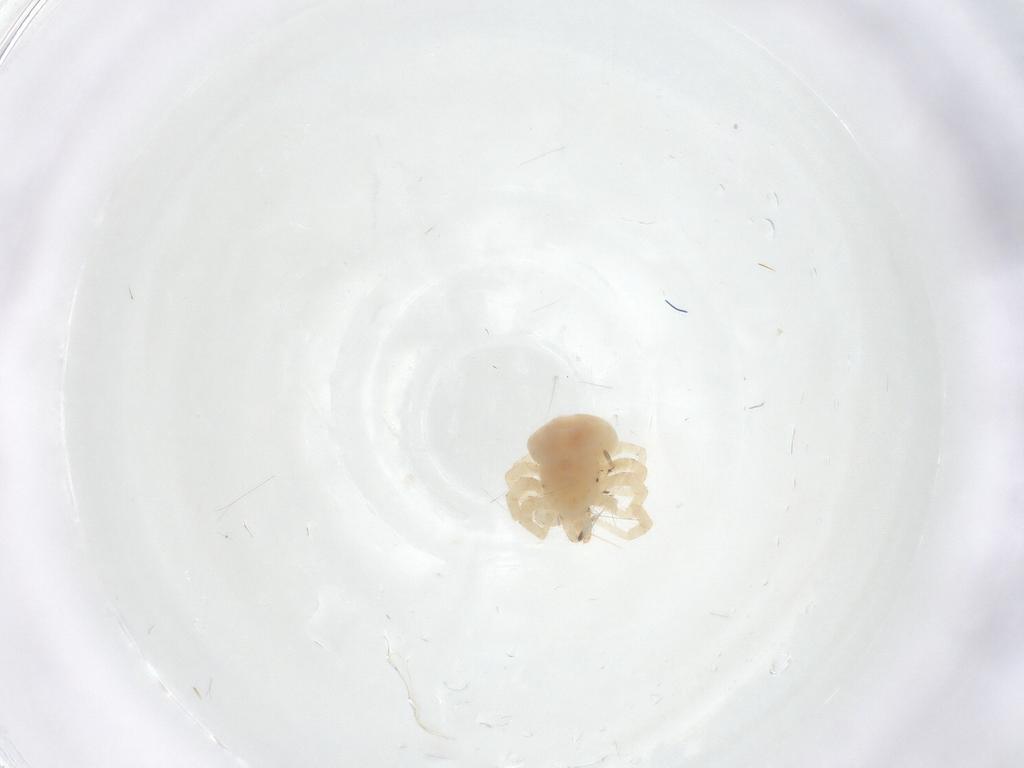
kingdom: Animalia
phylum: Arthropoda
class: Arachnida
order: Trombidiformes
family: Anystidae
